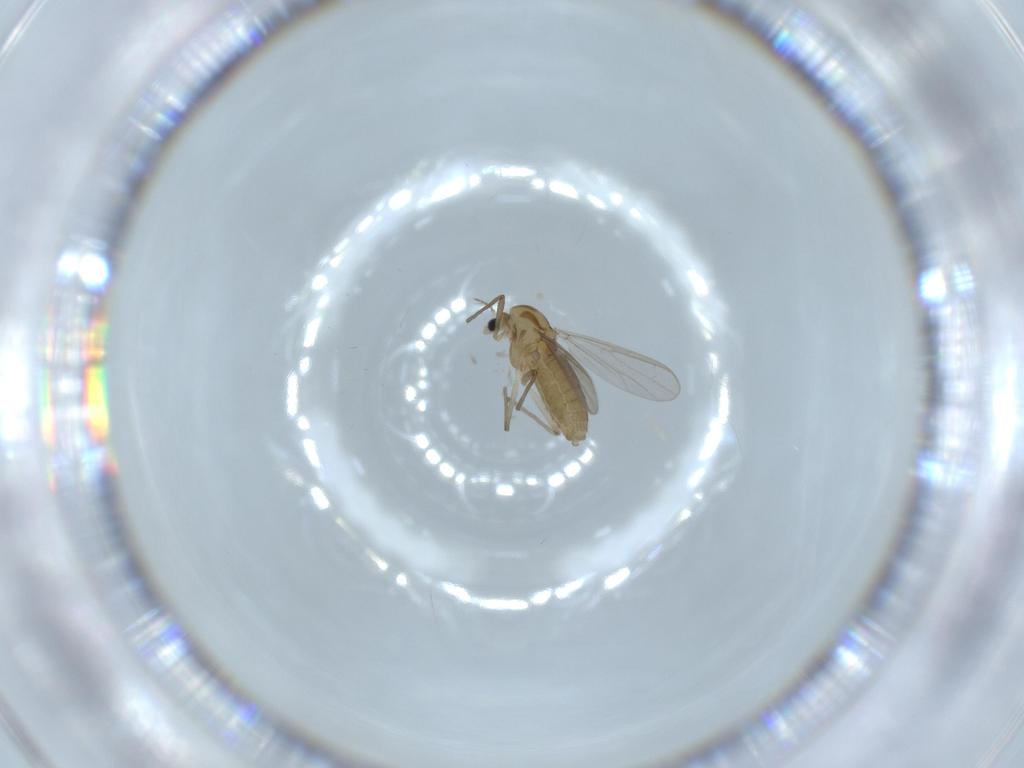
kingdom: Animalia
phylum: Arthropoda
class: Insecta
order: Diptera
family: Chironomidae
